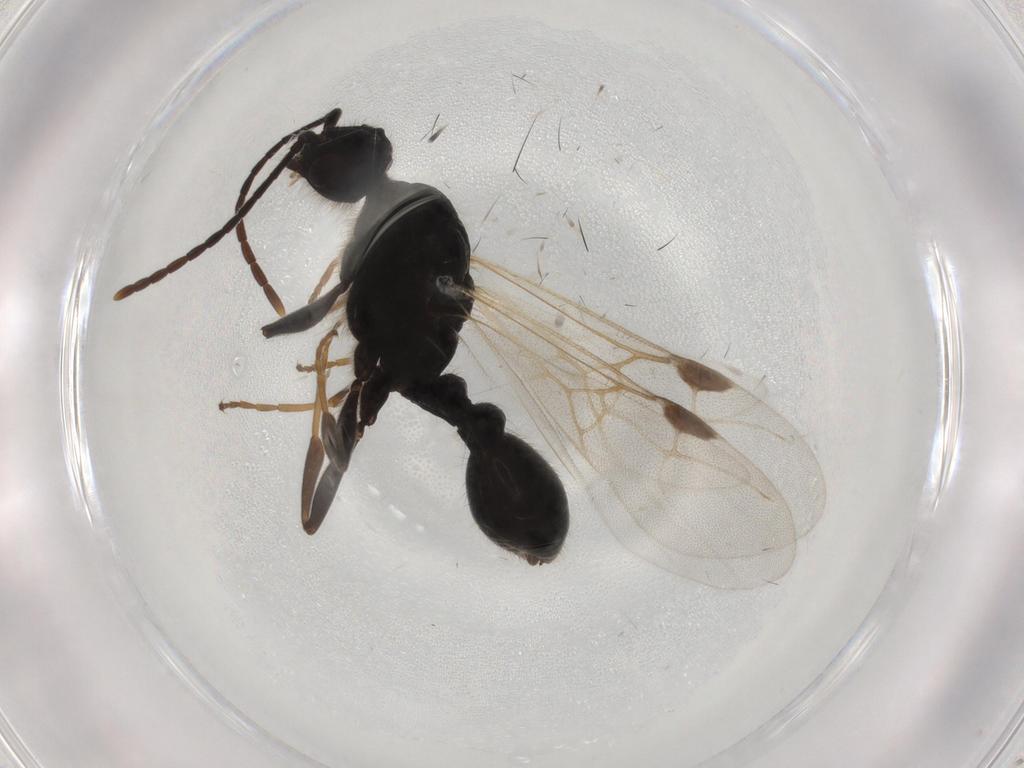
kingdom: Animalia
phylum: Arthropoda
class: Insecta
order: Hymenoptera
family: Formicidae
